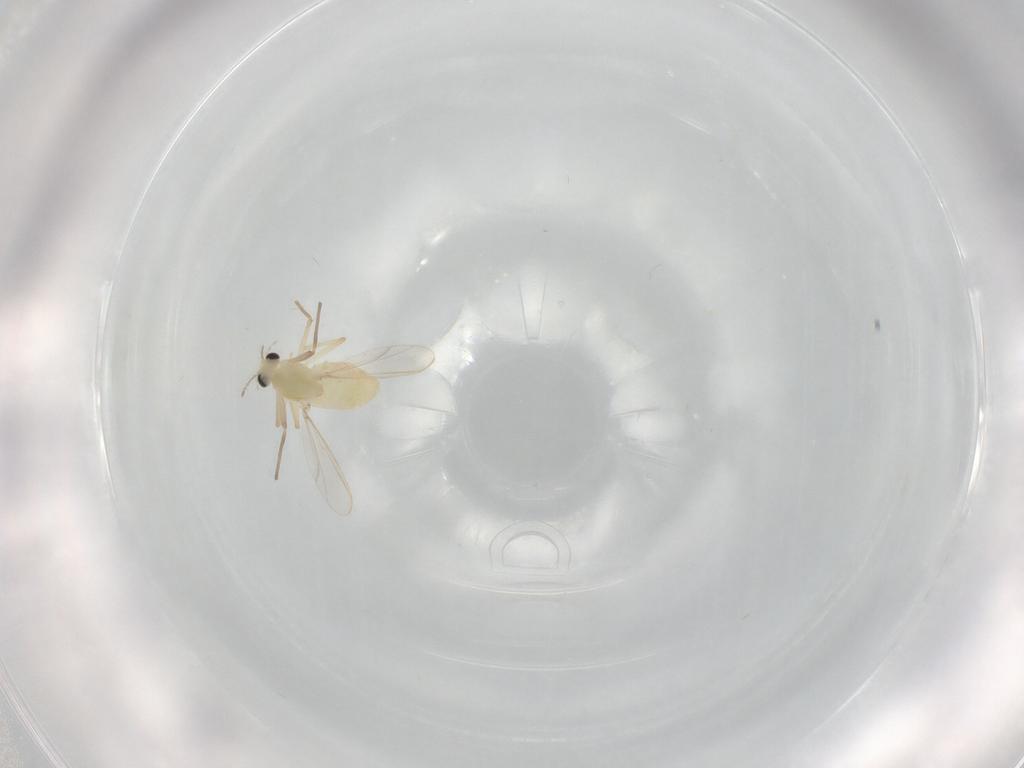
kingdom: Animalia
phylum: Arthropoda
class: Insecta
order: Diptera
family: Chironomidae
